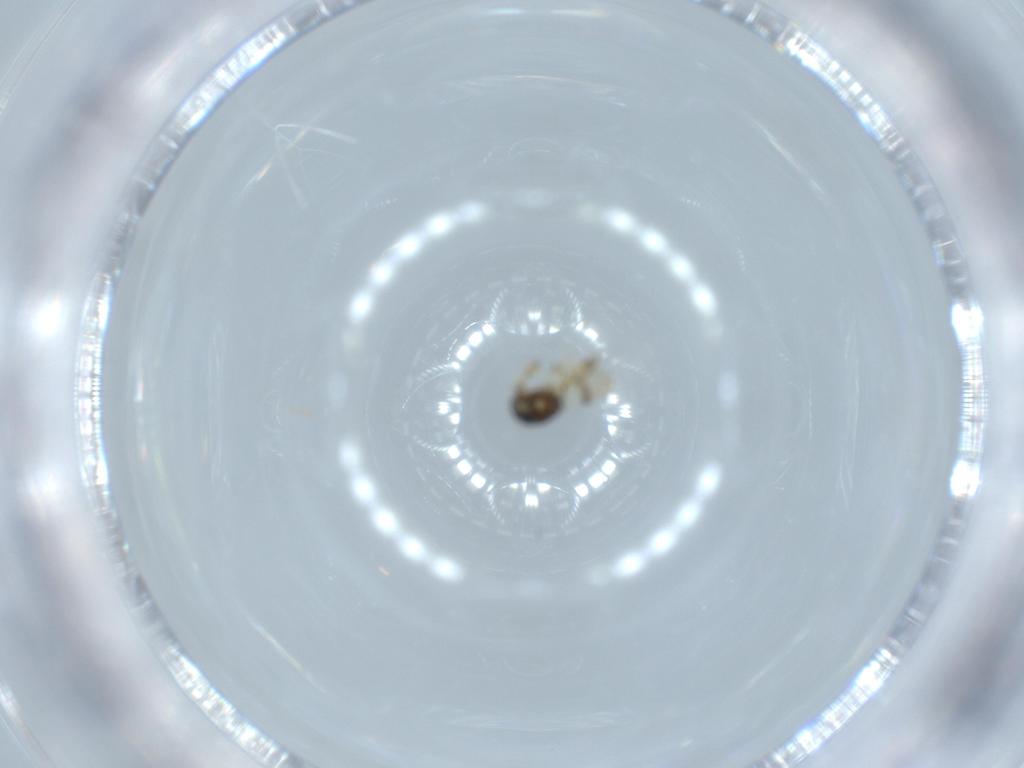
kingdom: Animalia
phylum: Arthropoda
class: Insecta
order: Hymenoptera
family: Scelionidae
